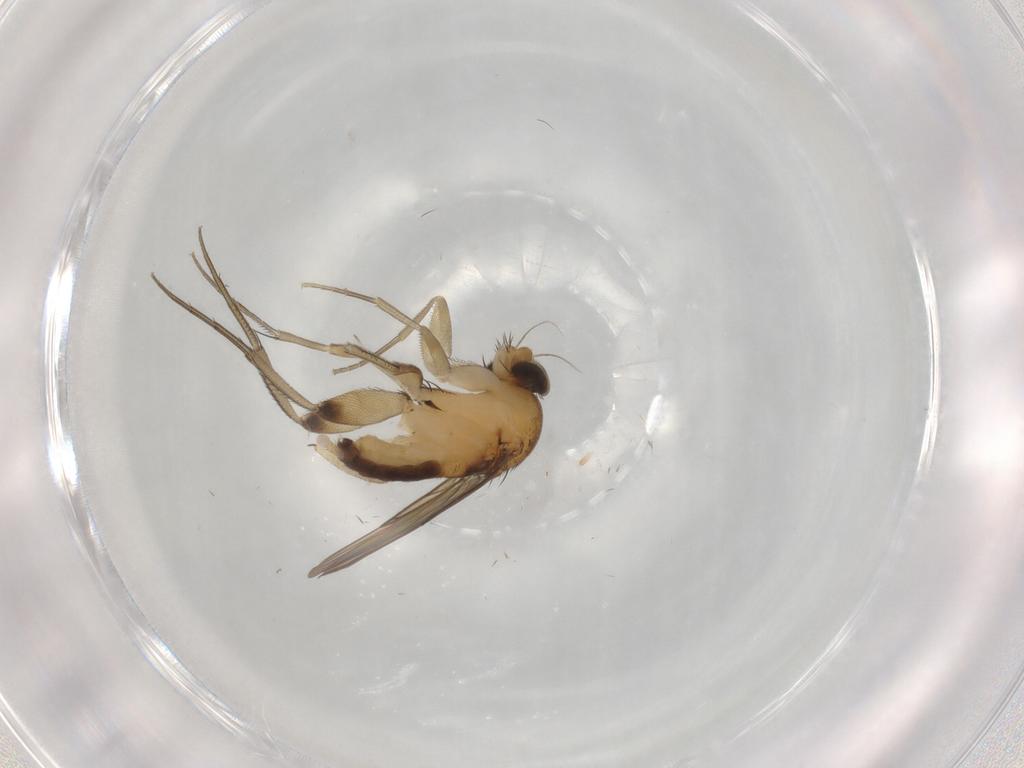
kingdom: Animalia
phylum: Arthropoda
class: Insecta
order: Diptera
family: Phoridae
